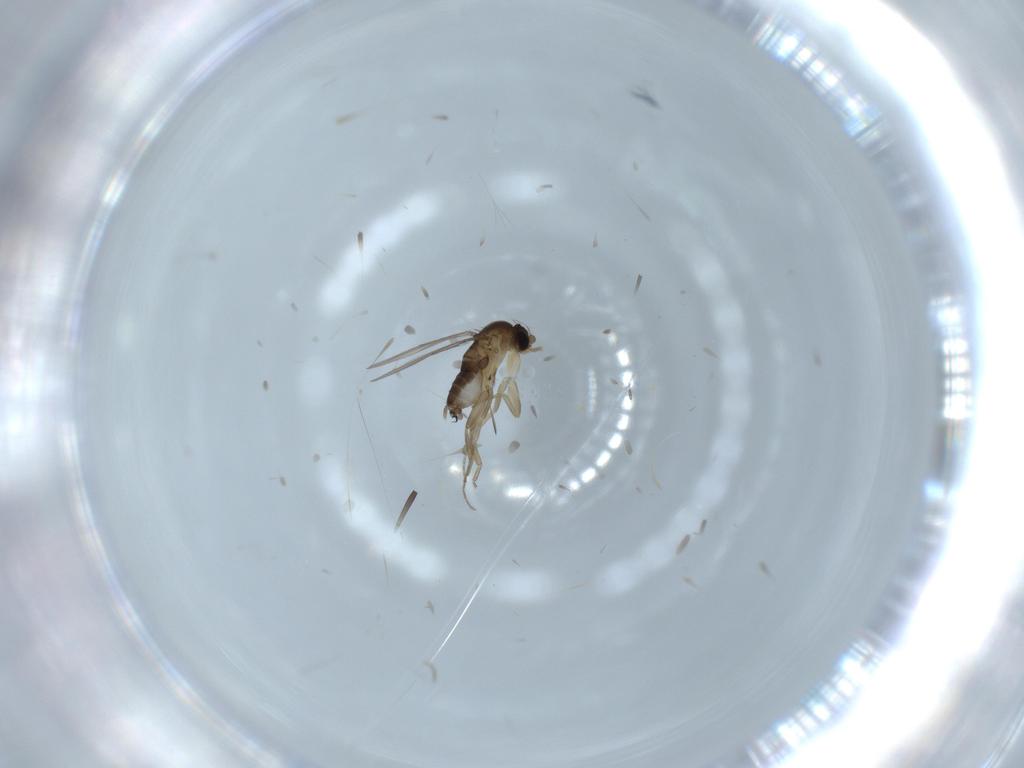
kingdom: Animalia
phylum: Arthropoda
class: Insecta
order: Diptera
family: Phoridae
